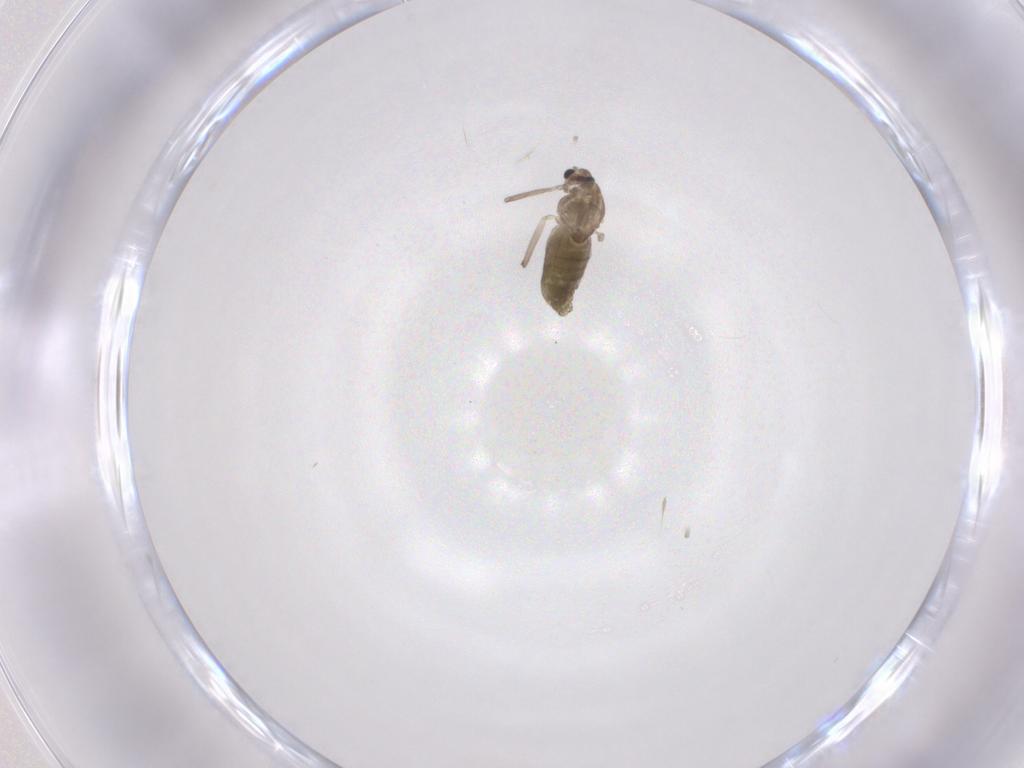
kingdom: Animalia
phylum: Arthropoda
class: Insecta
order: Diptera
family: Chironomidae
